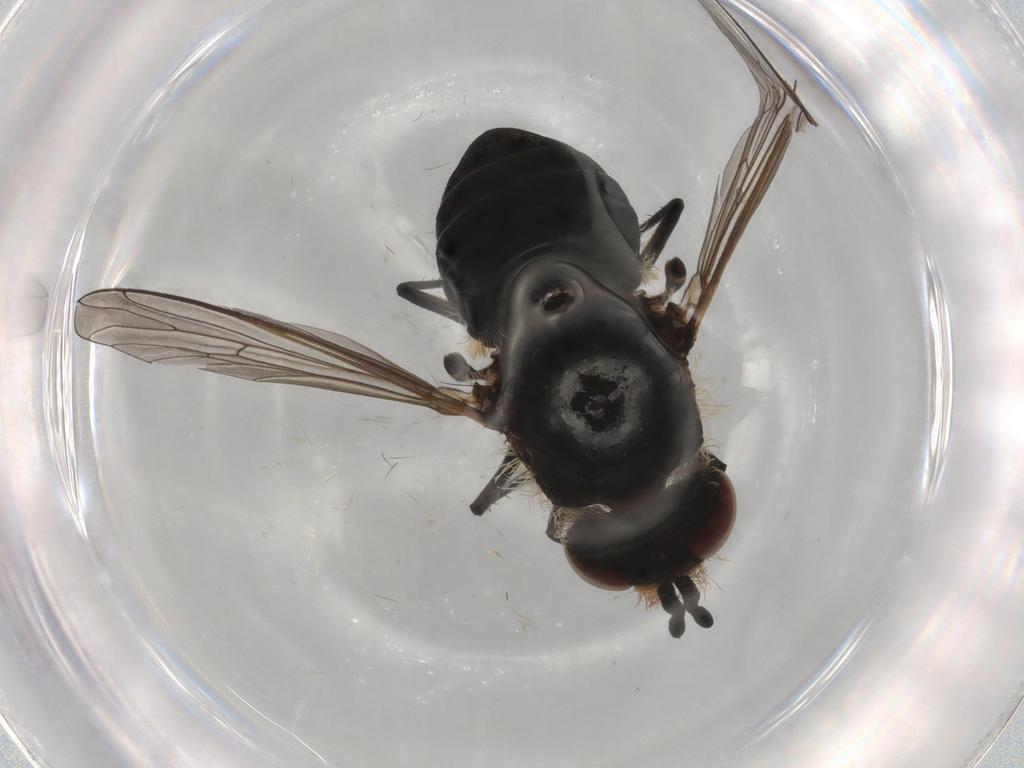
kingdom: Animalia
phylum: Arthropoda
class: Insecta
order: Diptera
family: Bombyliidae
